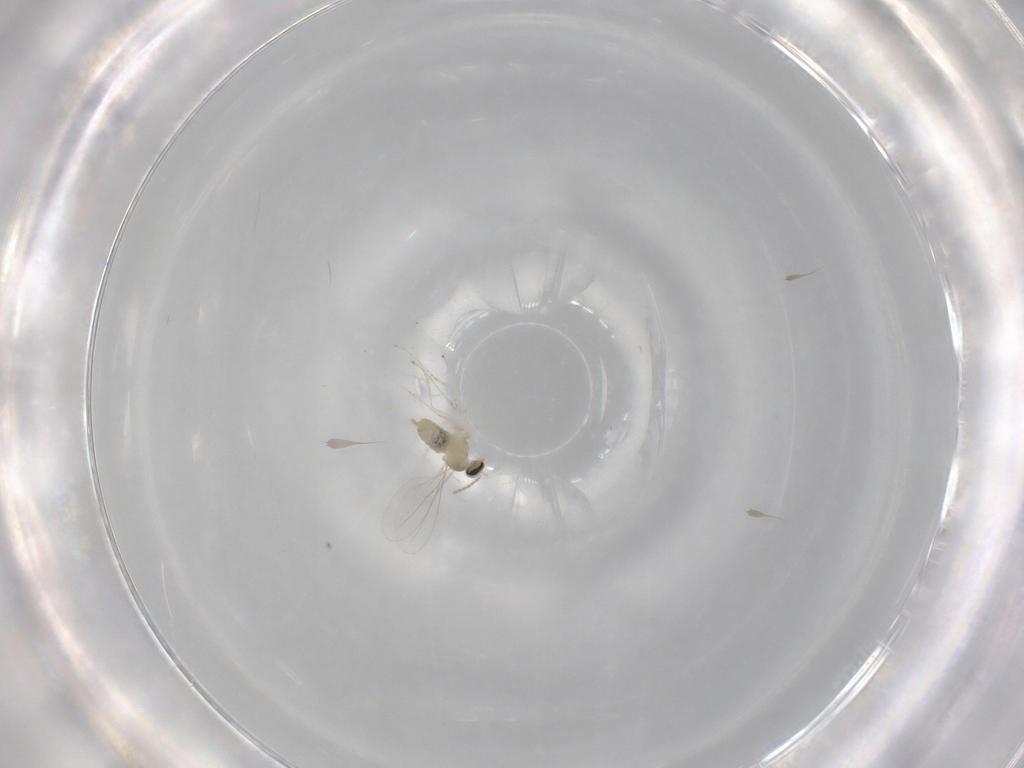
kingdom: Animalia
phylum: Arthropoda
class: Insecta
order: Diptera
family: Cecidomyiidae
